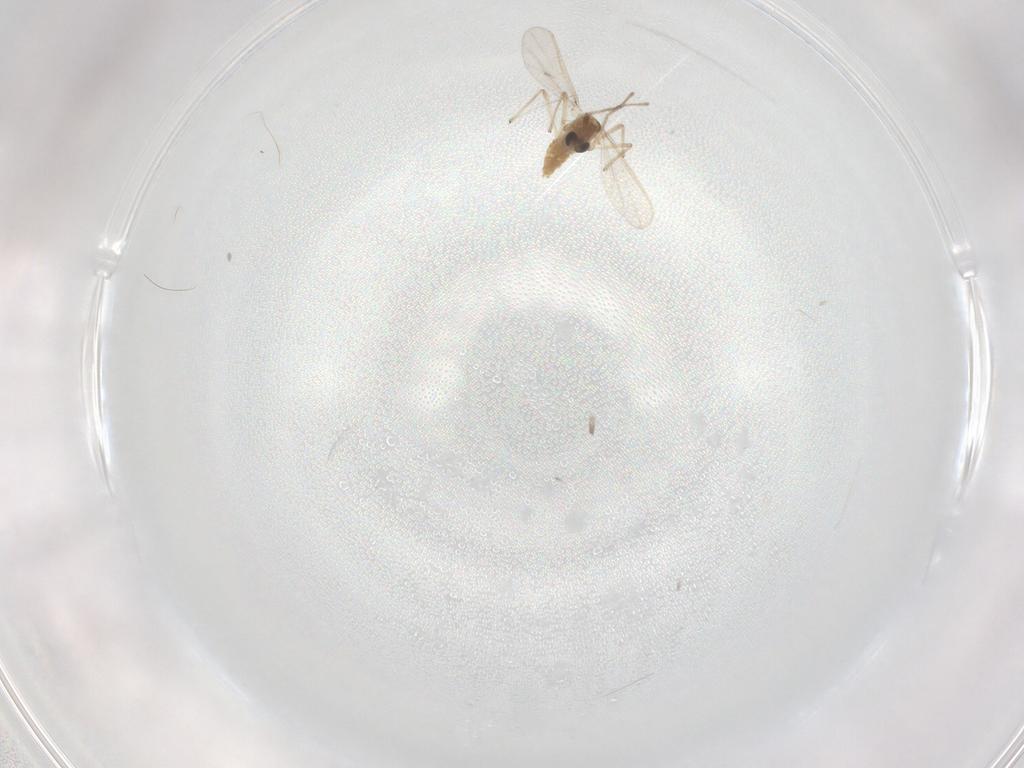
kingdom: Animalia
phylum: Arthropoda
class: Insecta
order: Diptera
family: Chironomidae
